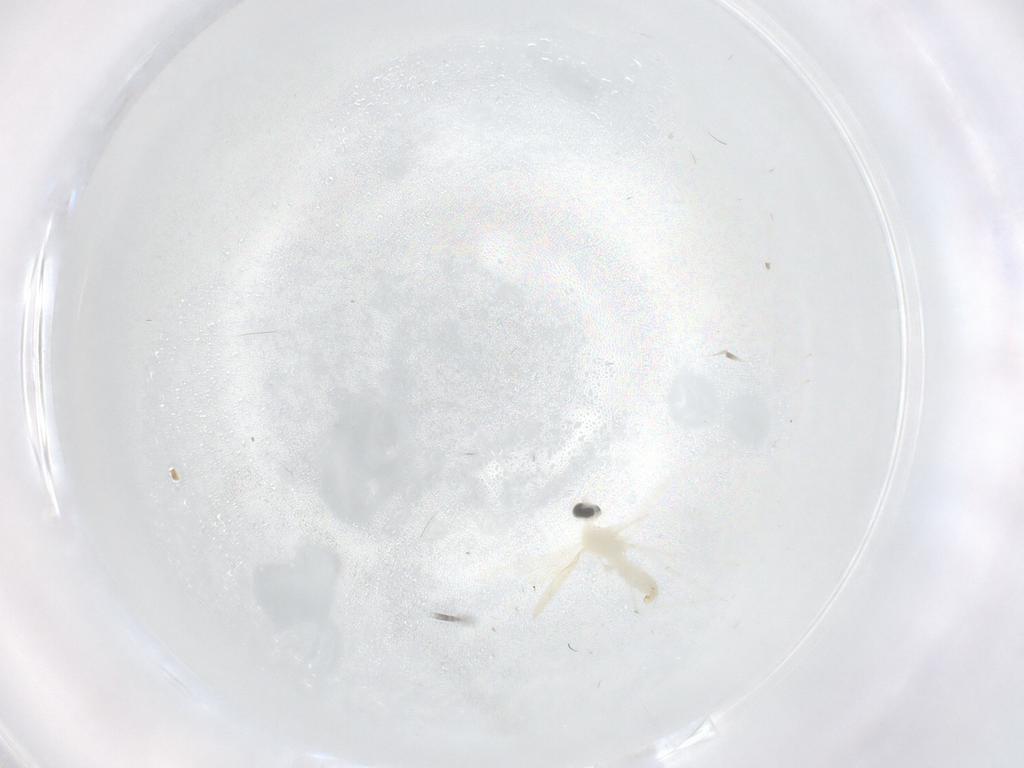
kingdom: Animalia
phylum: Arthropoda
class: Insecta
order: Diptera
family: Cecidomyiidae
